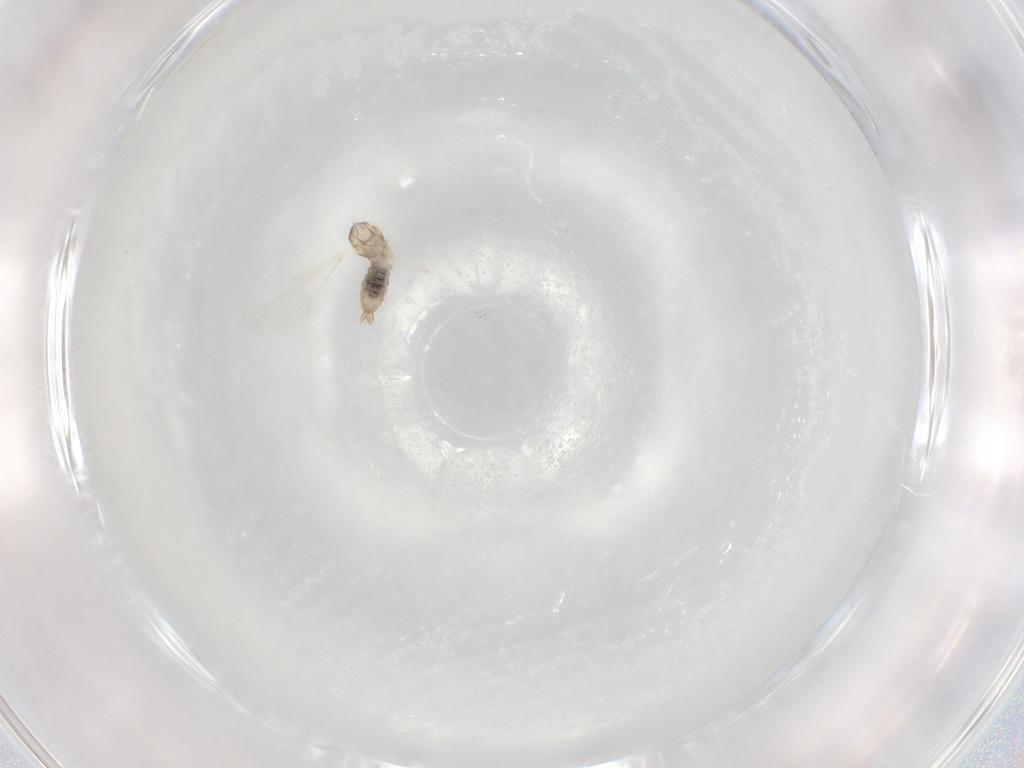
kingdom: Animalia
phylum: Arthropoda
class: Insecta
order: Diptera
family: Cecidomyiidae
